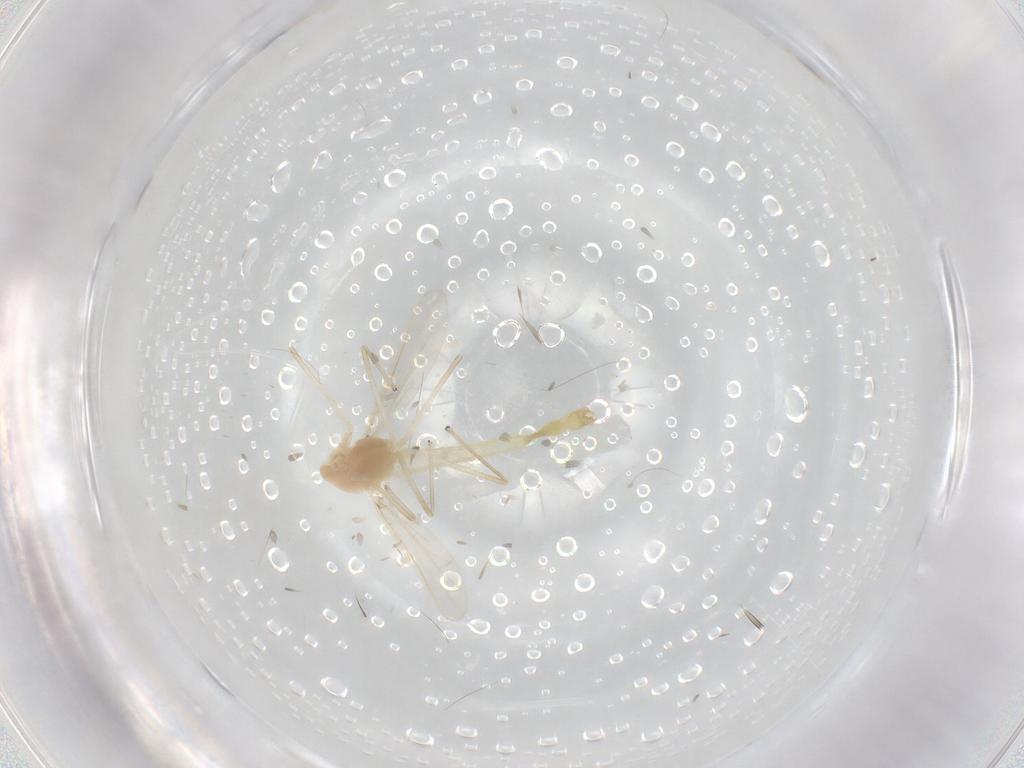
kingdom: Animalia
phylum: Arthropoda
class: Insecta
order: Diptera
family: Chironomidae
